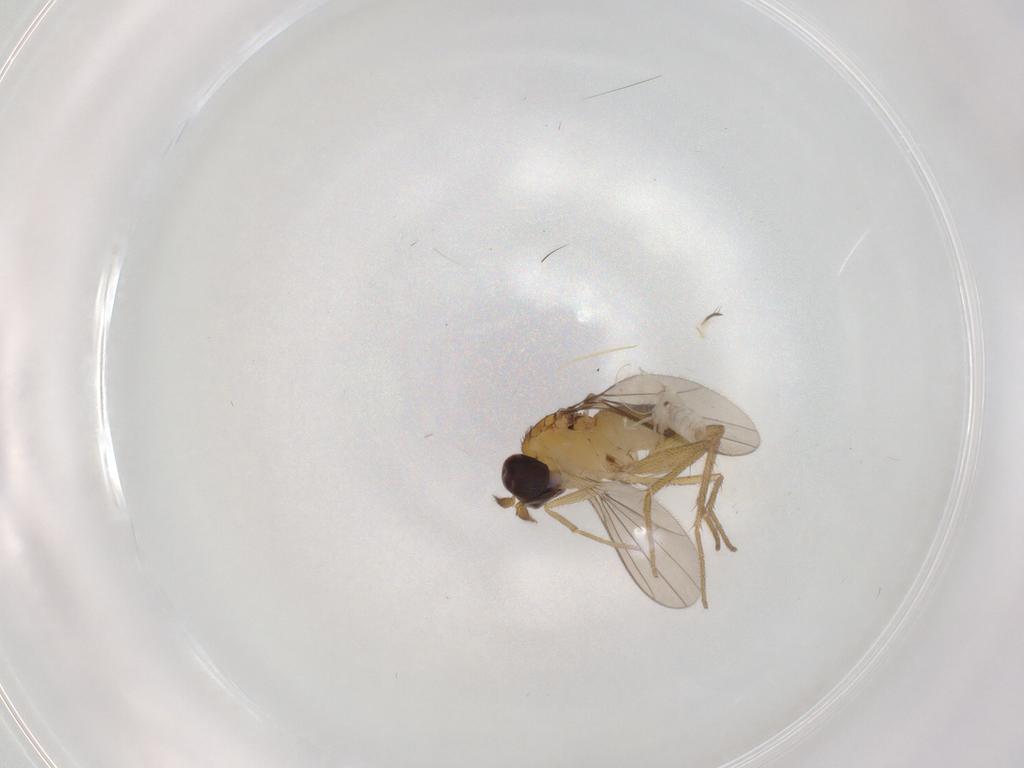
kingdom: Animalia
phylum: Arthropoda
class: Insecta
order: Diptera
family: Cecidomyiidae
